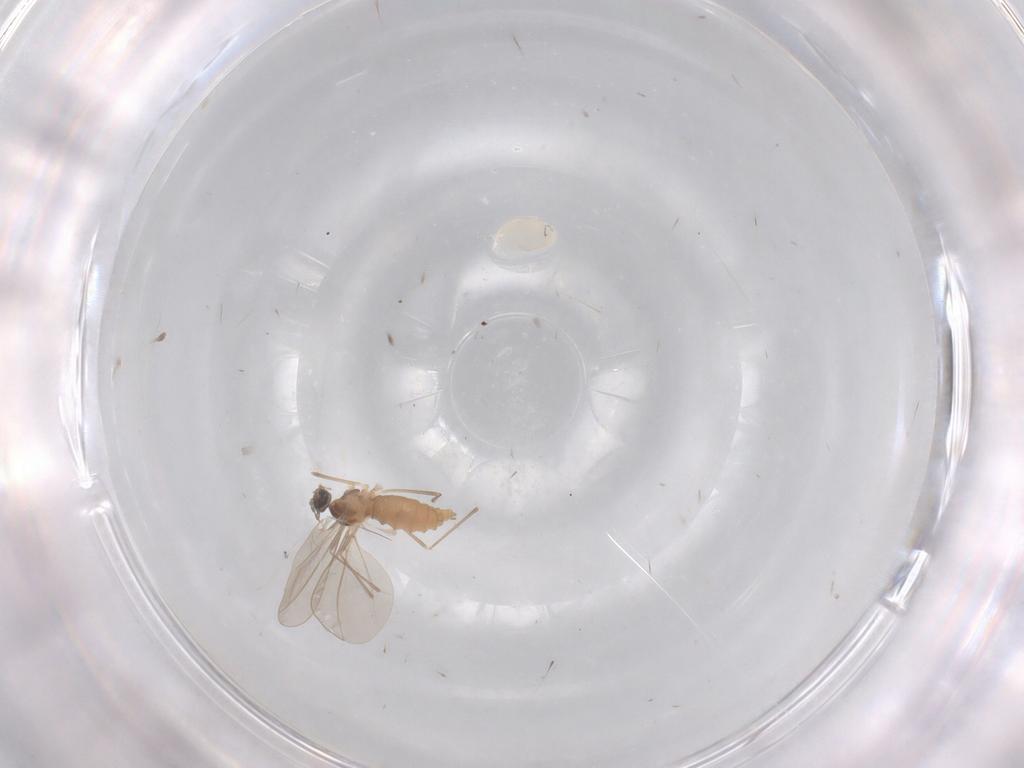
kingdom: Animalia
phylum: Arthropoda
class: Insecta
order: Diptera
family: Cecidomyiidae
